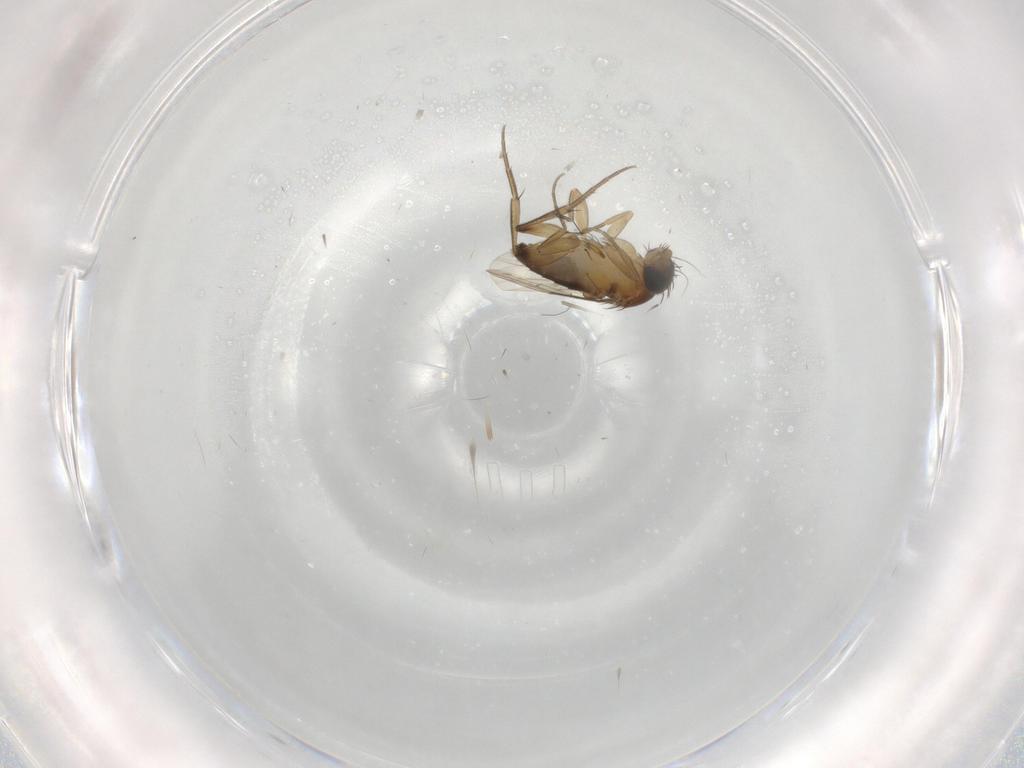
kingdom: Animalia
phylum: Arthropoda
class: Insecta
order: Diptera
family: Phoridae
